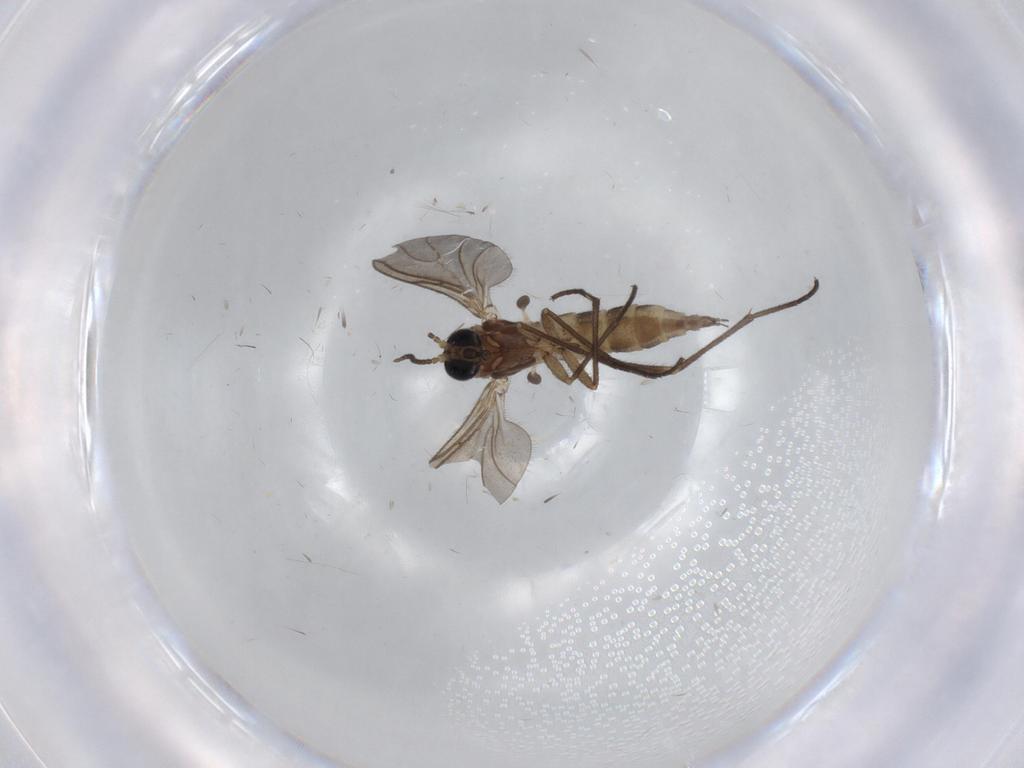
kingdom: Animalia
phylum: Arthropoda
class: Insecta
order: Diptera
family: Sciaridae
